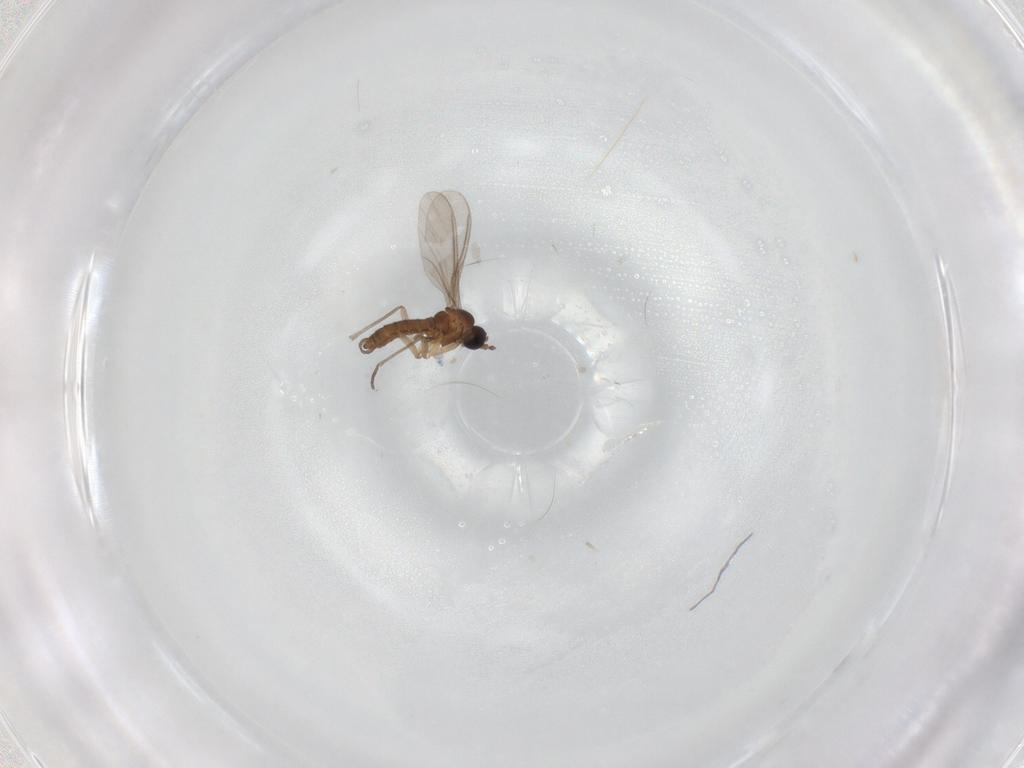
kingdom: Animalia
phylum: Arthropoda
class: Insecta
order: Diptera
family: Sciaridae
